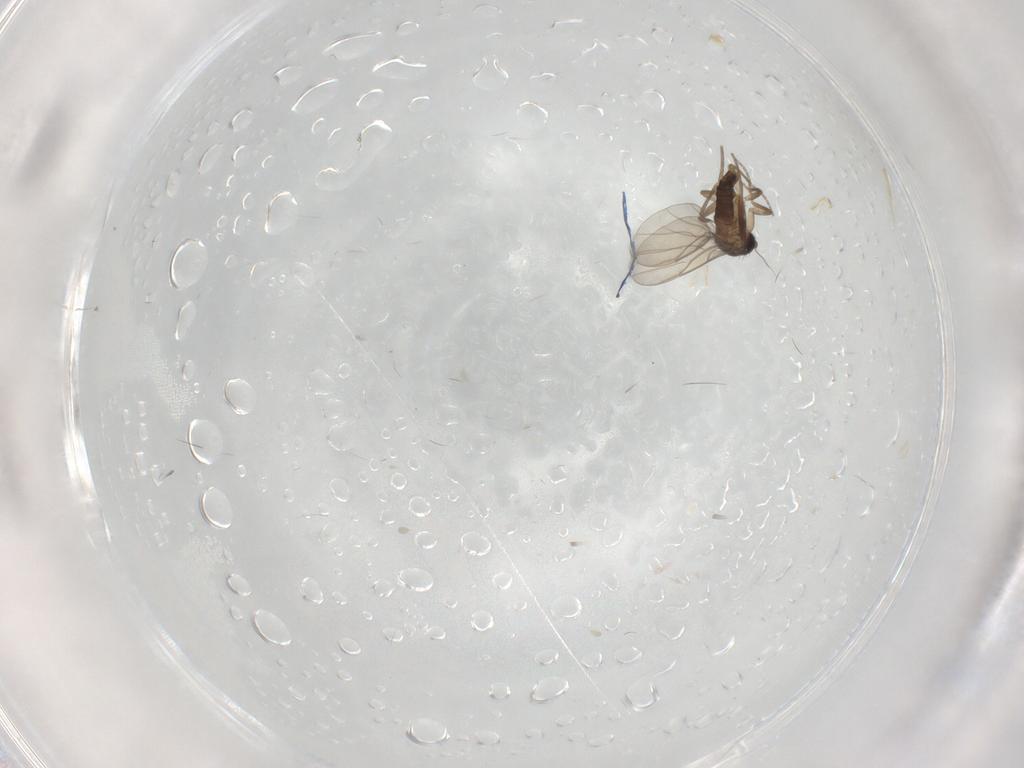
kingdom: Animalia
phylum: Arthropoda
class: Insecta
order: Diptera
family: Phoridae
